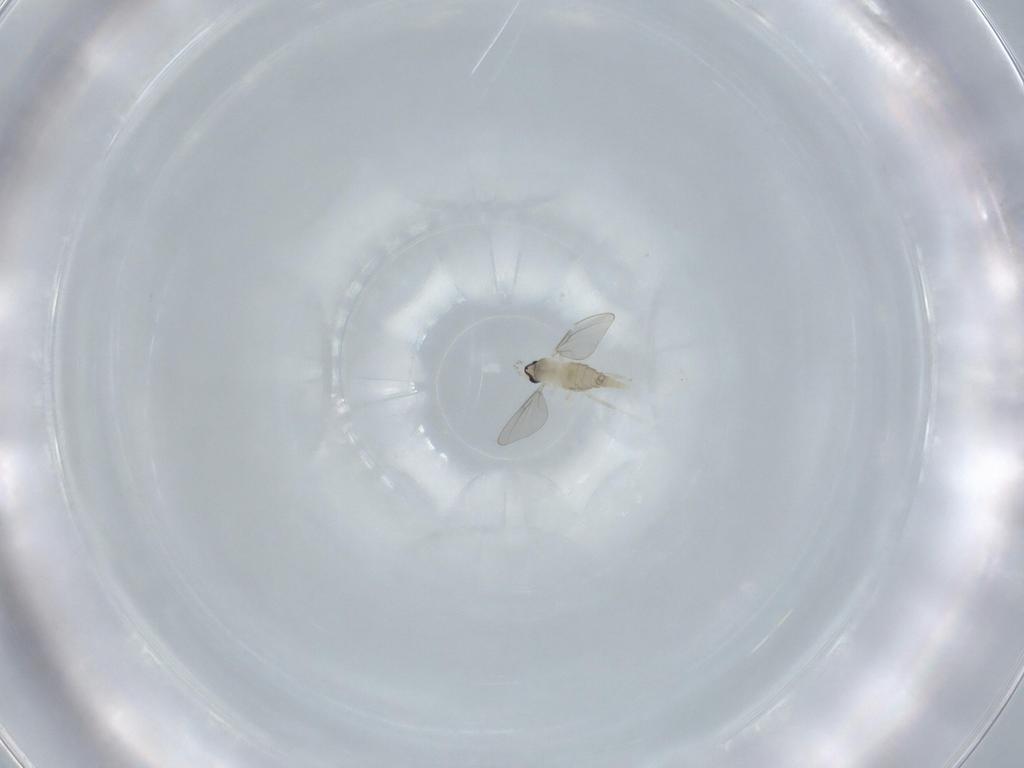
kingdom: Animalia
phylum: Arthropoda
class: Insecta
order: Diptera
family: Cecidomyiidae
